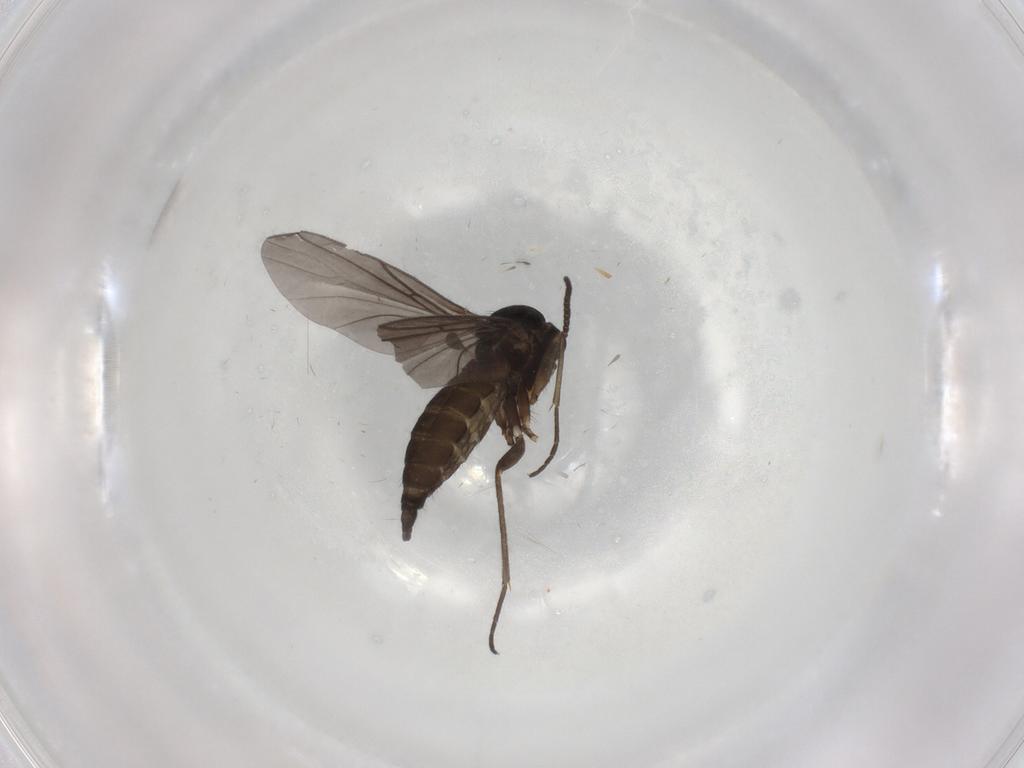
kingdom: Animalia
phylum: Arthropoda
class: Insecta
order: Diptera
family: Sciaridae
